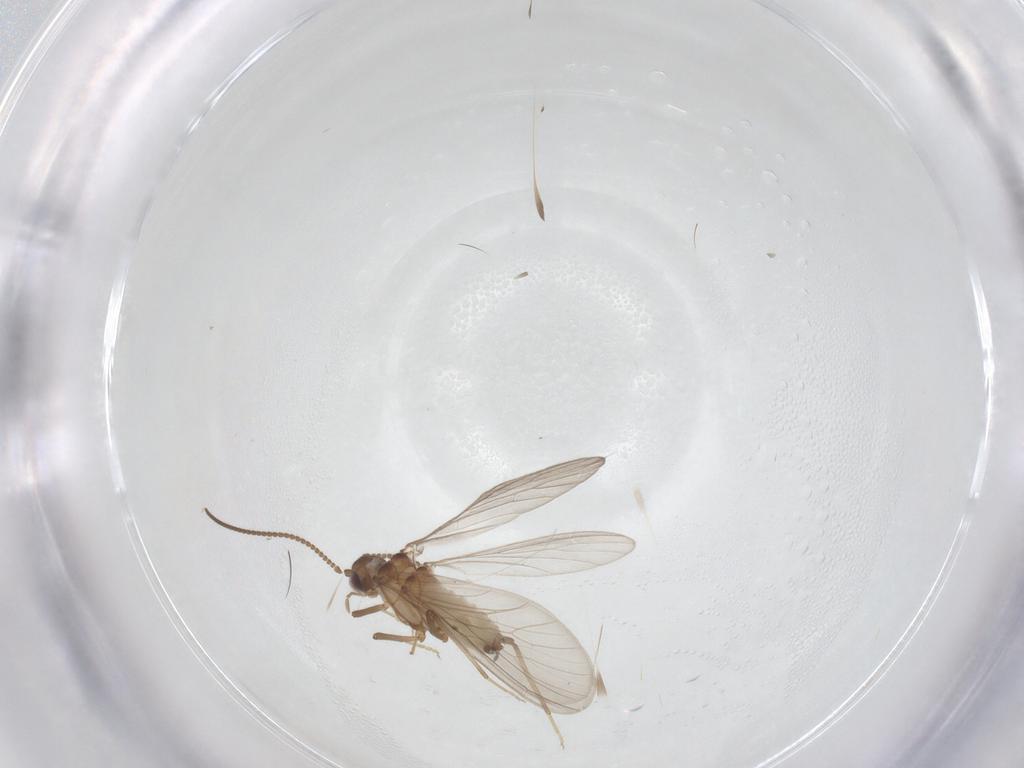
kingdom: Animalia
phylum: Arthropoda
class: Insecta
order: Neuroptera
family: Coniopterygidae
